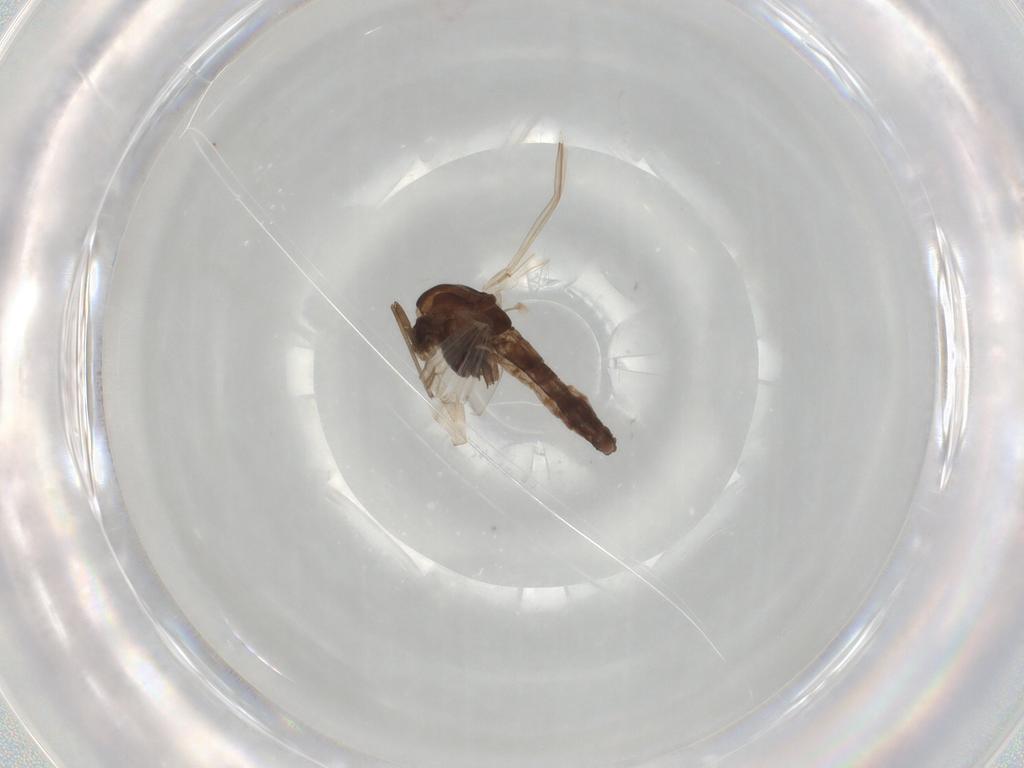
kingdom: Animalia
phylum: Arthropoda
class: Insecta
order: Diptera
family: Chironomidae
